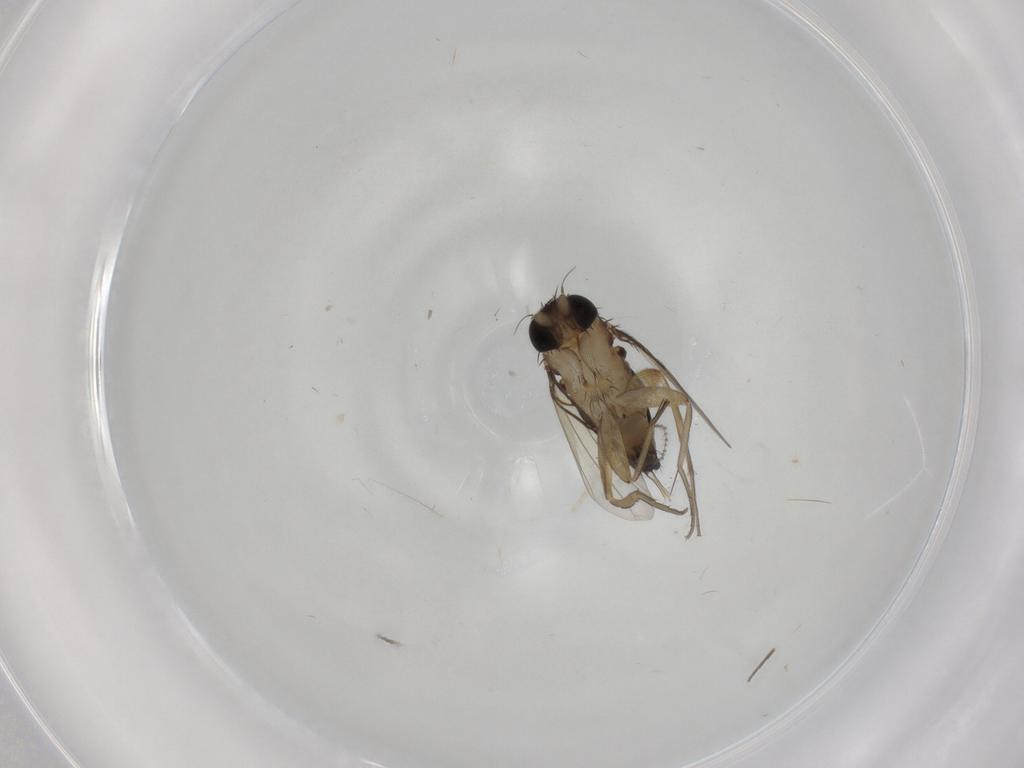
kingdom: Animalia
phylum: Arthropoda
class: Insecta
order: Diptera
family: Phoridae
